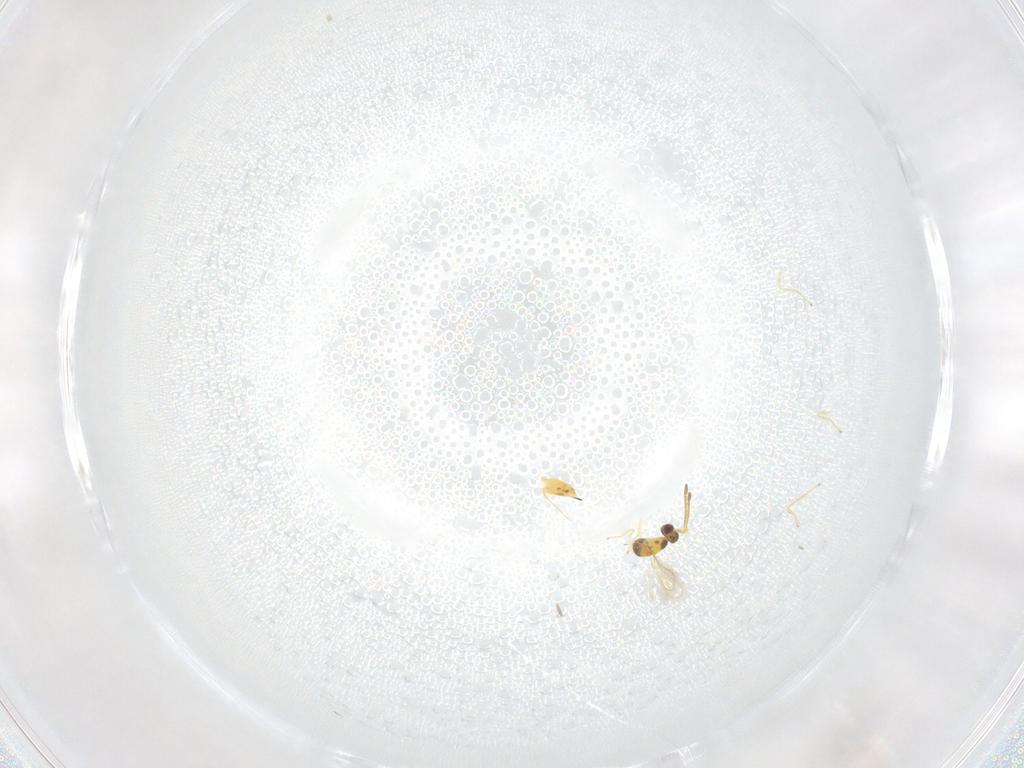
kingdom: Animalia
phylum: Arthropoda
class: Insecta
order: Hymenoptera
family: Mymaridae
